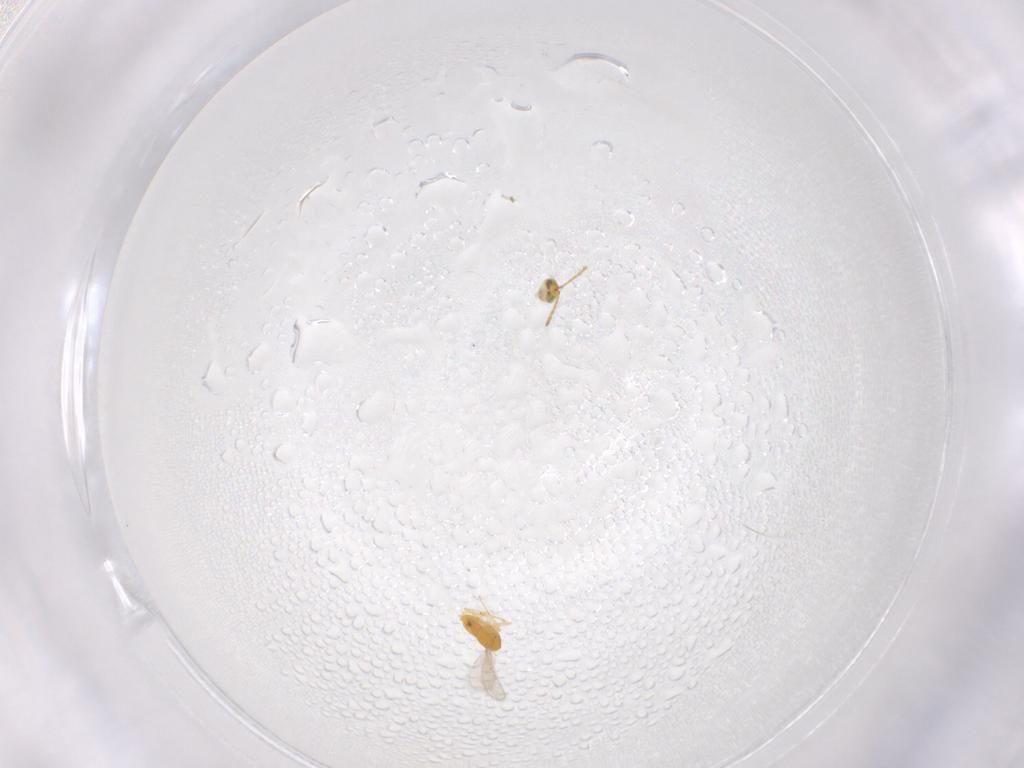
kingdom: Animalia
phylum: Arthropoda
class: Insecta
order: Hymenoptera
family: Aphelinidae
